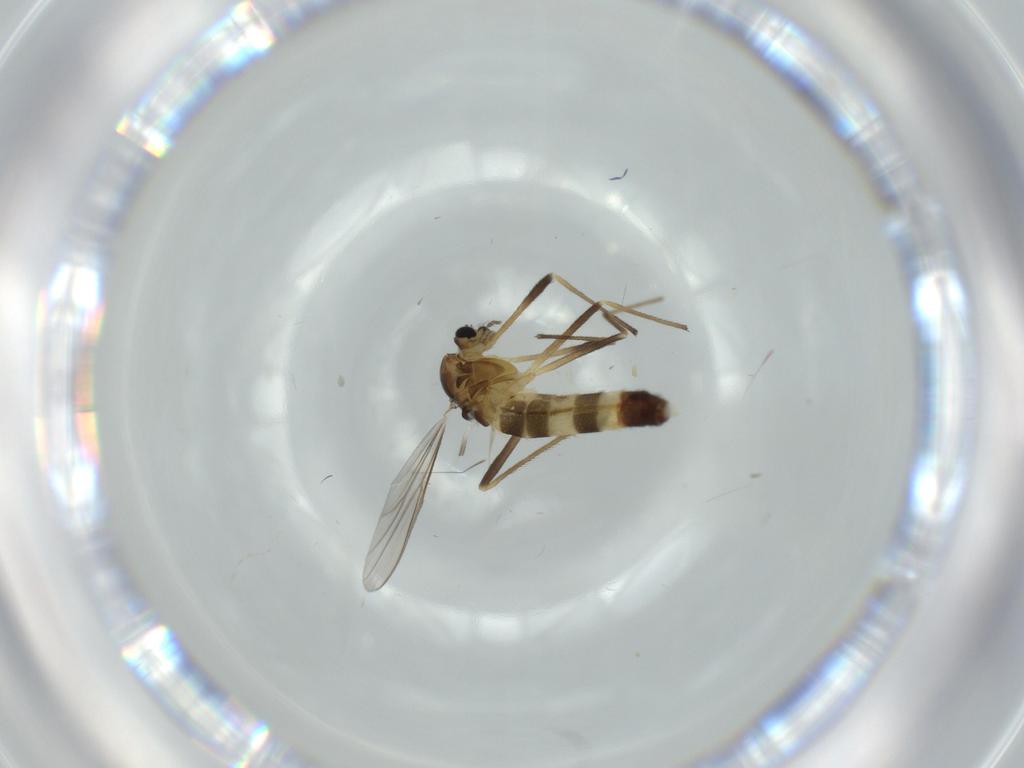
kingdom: Animalia
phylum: Arthropoda
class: Insecta
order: Diptera
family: Chironomidae
